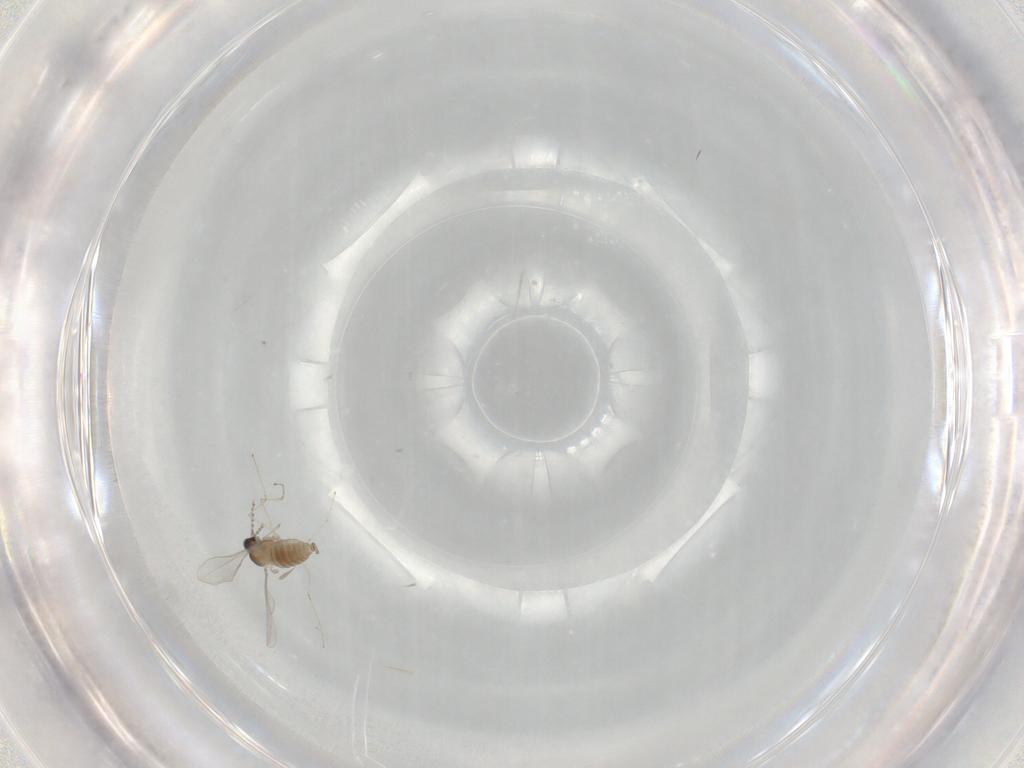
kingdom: Animalia
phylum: Arthropoda
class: Insecta
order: Diptera
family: Cecidomyiidae
